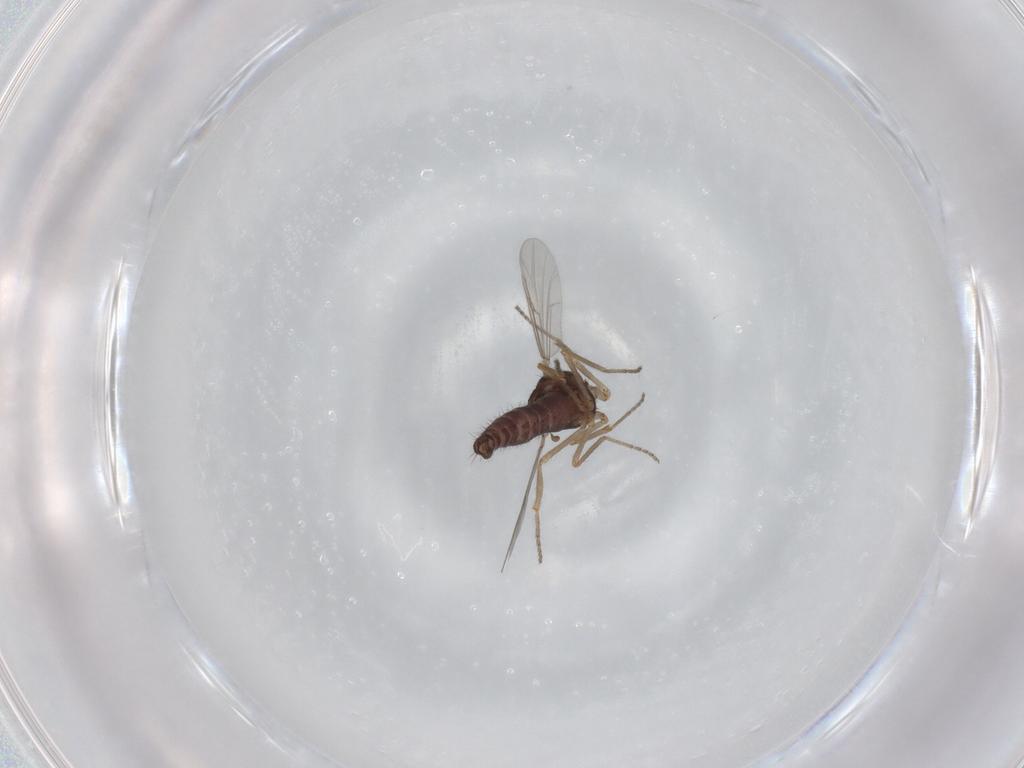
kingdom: Animalia
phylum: Arthropoda
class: Insecta
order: Diptera
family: Ceratopogonidae
